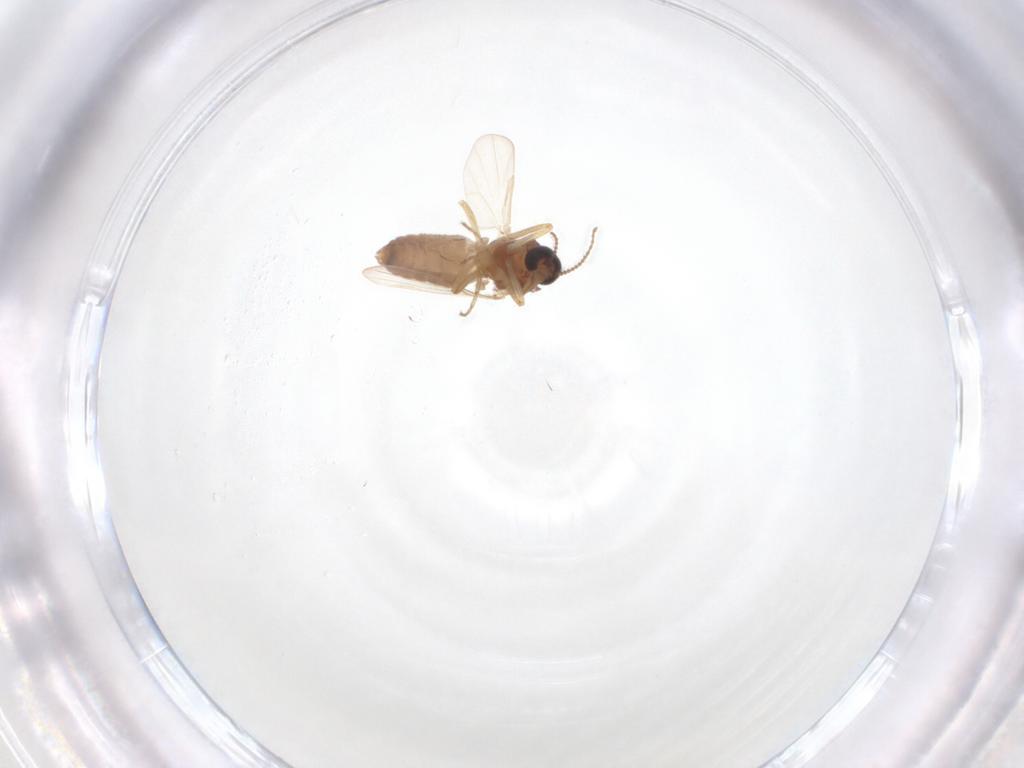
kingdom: Animalia
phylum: Arthropoda
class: Insecta
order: Diptera
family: Ceratopogonidae
